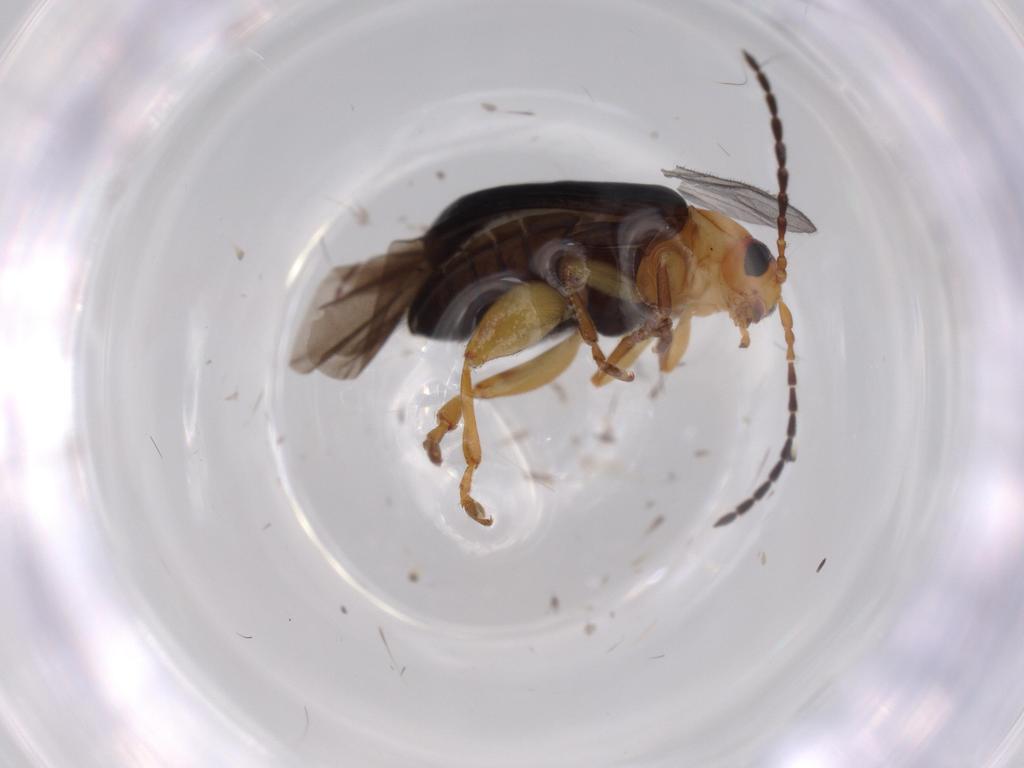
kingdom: Animalia
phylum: Arthropoda
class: Insecta
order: Coleoptera
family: Chrysomelidae
